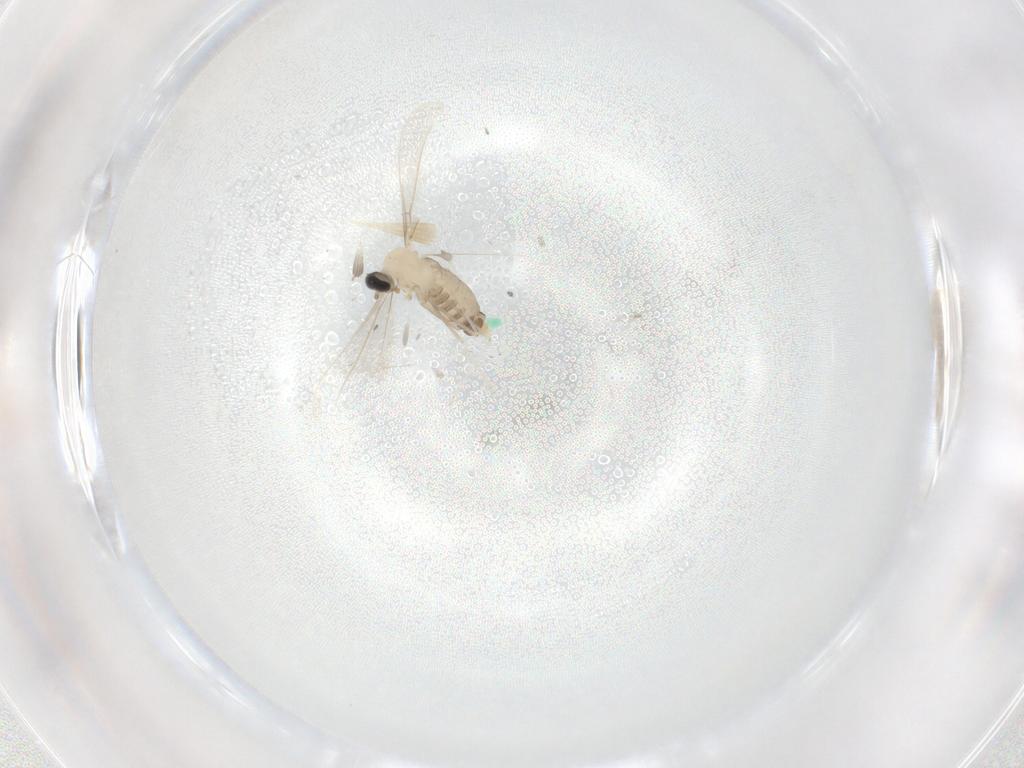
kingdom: Animalia
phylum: Arthropoda
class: Insecta
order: Diptera
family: Cecidomyiidae
